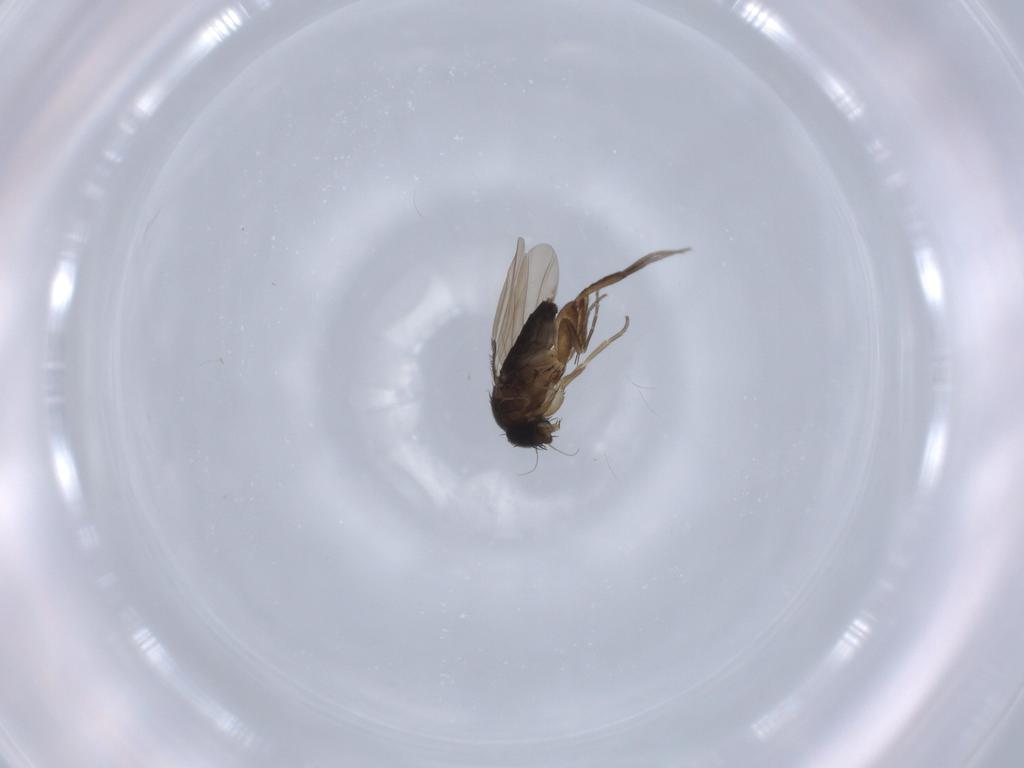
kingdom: Animalia
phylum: Arthropoda
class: Insecta
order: Diptera
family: Phoridae
